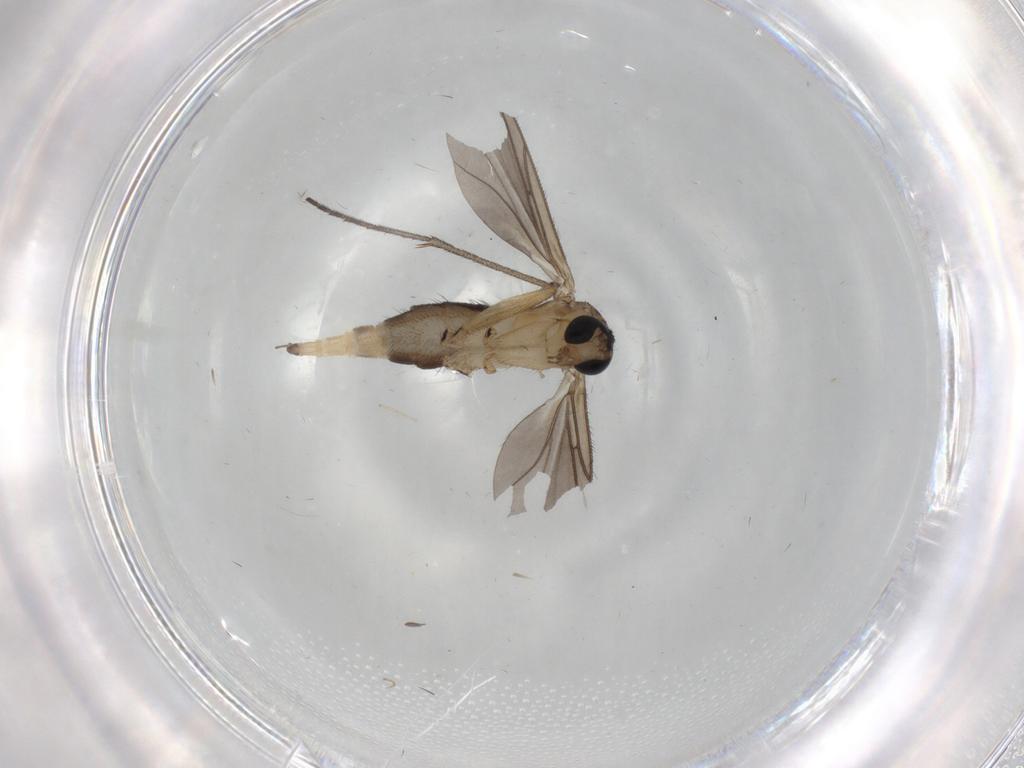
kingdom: Animalia
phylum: Arthropoda
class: Insecta
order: Diptera
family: Sciaridae
